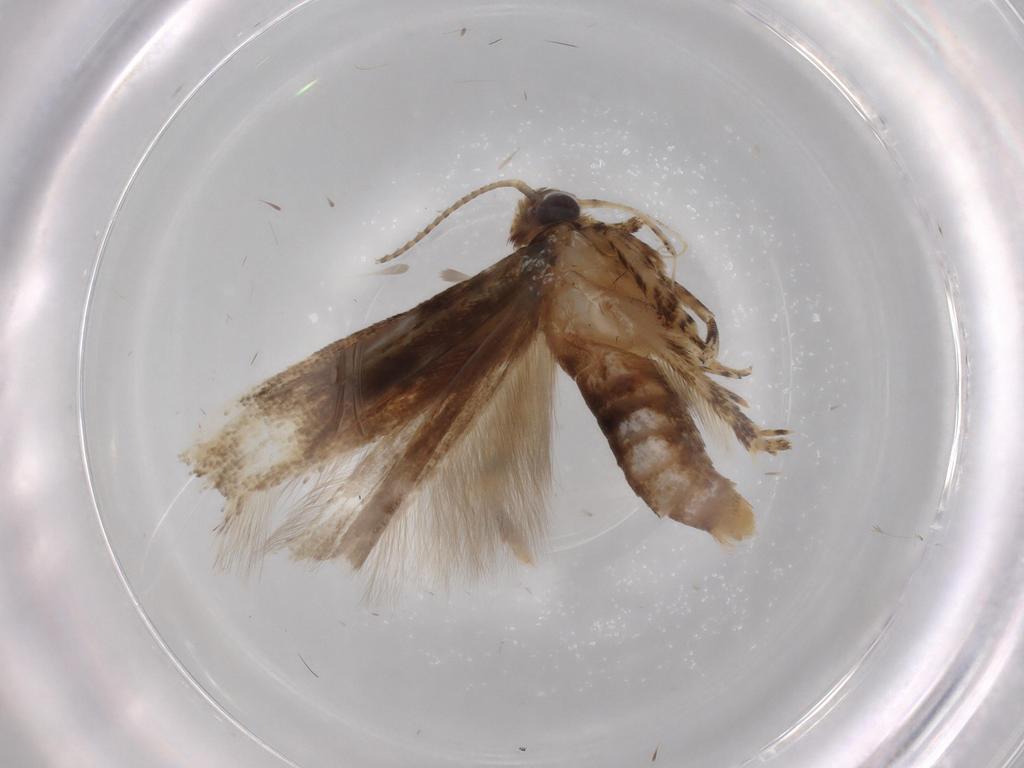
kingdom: Animalia
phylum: Arthropoda
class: Insecta
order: Lepidoptera
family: Gelechiidae
